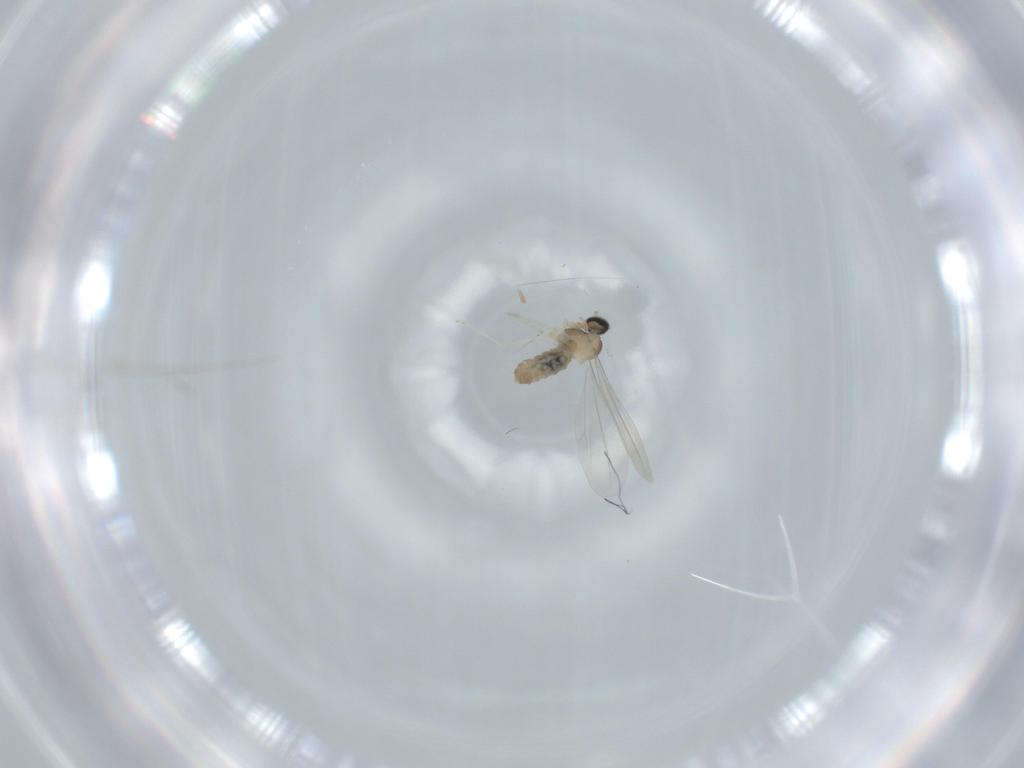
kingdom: Animalia
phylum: Arthropoda
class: Insecta
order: Diptera
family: Cecidomyiidae
